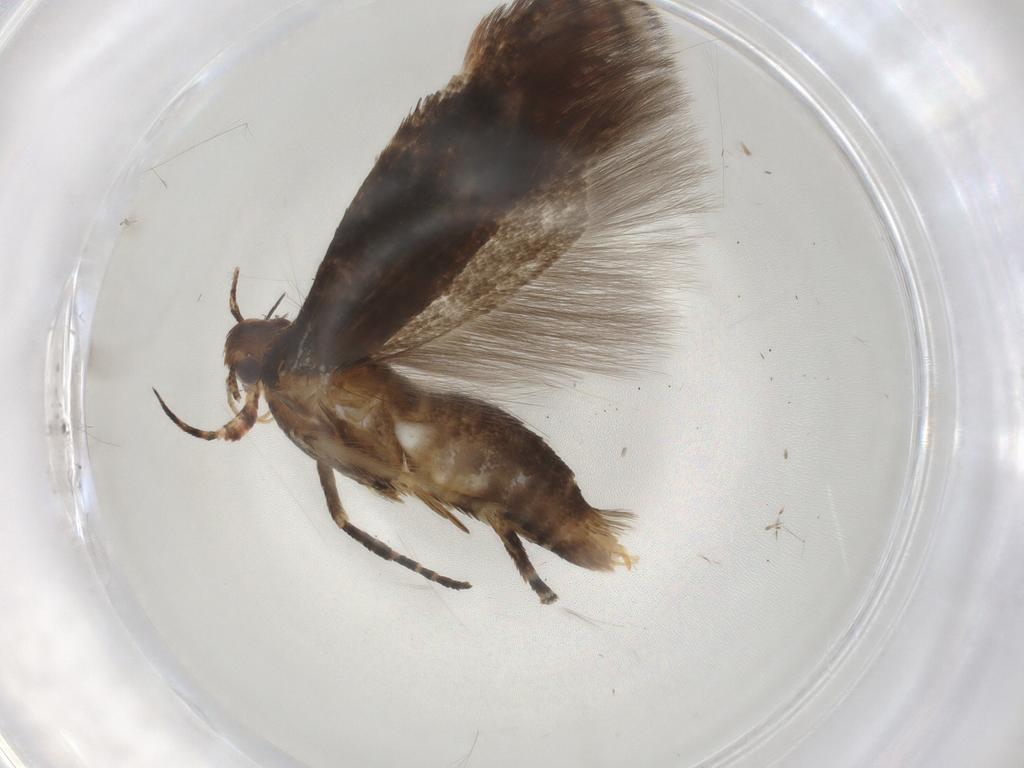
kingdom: Animalia
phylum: Arthropoda
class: Insecta
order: Lepidoptera
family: Gelechiidae
